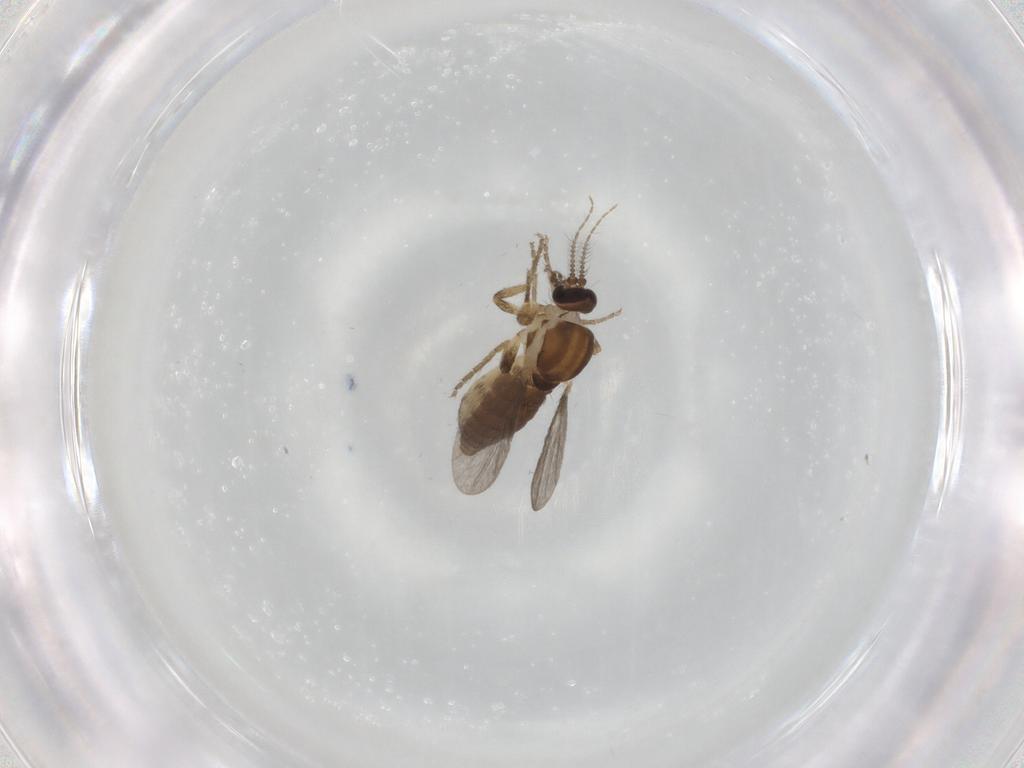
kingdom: Animalia
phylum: Arthropoda
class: Insecta
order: Diptera
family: Ceratopogonidae
